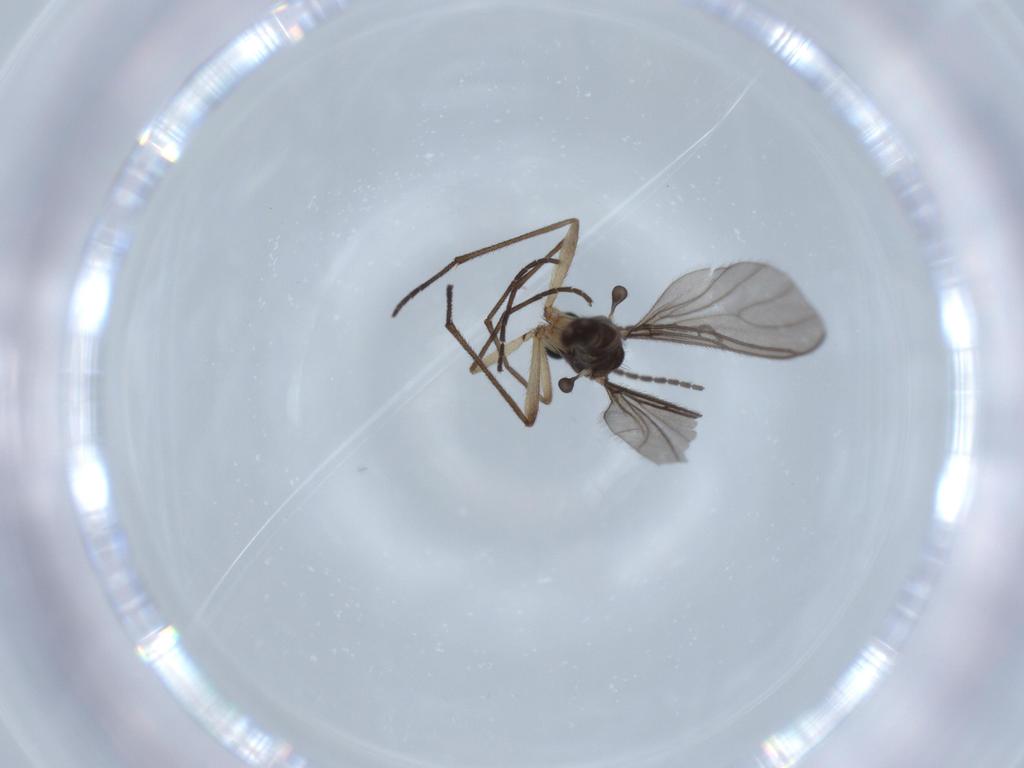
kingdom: Animalia
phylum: Arthropoda
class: Insecta
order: Diptera
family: Sciaridae
